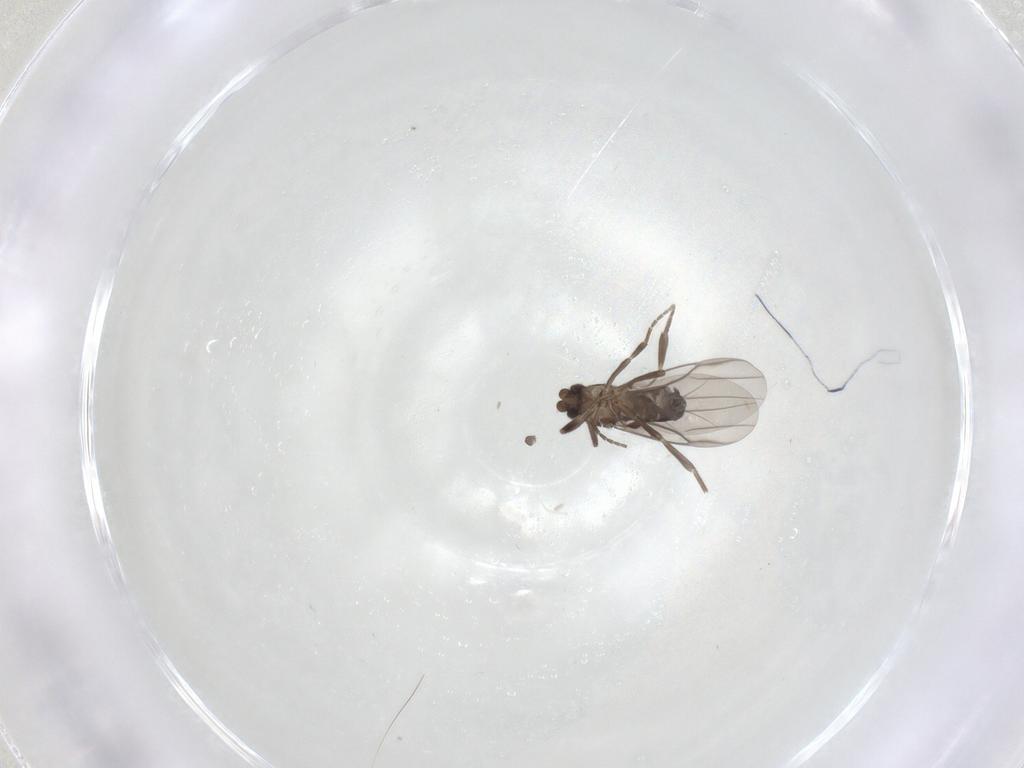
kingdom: Animalia
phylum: Arthropoda
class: Insecta
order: Diptera
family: Phoridae
